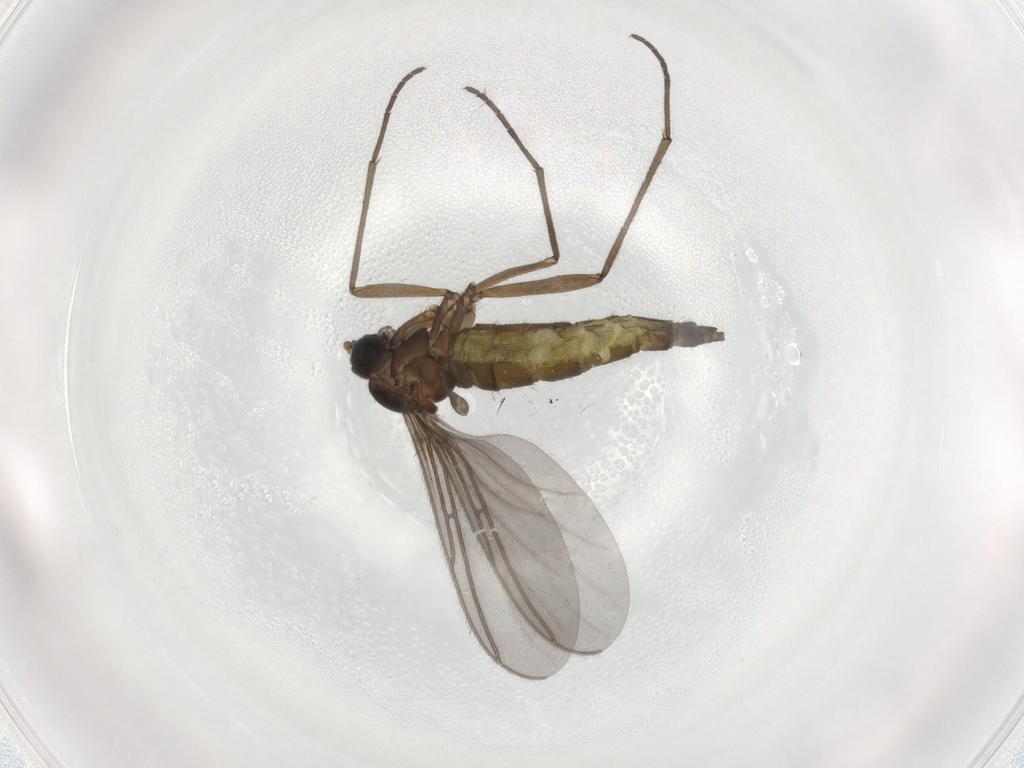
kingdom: Animalia
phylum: Arthropoda
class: Insecta
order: Diptera
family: Sciaridae
